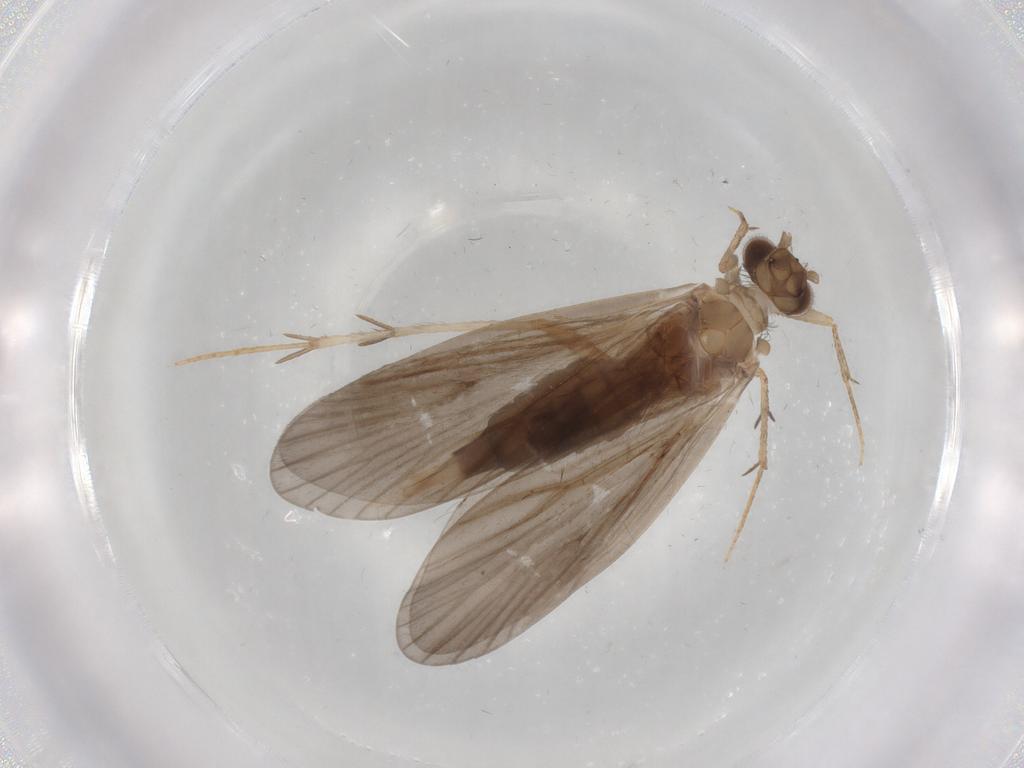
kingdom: Animalia
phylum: Arthropoda
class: Insecta
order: Trichoptera
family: Philopotamidae
